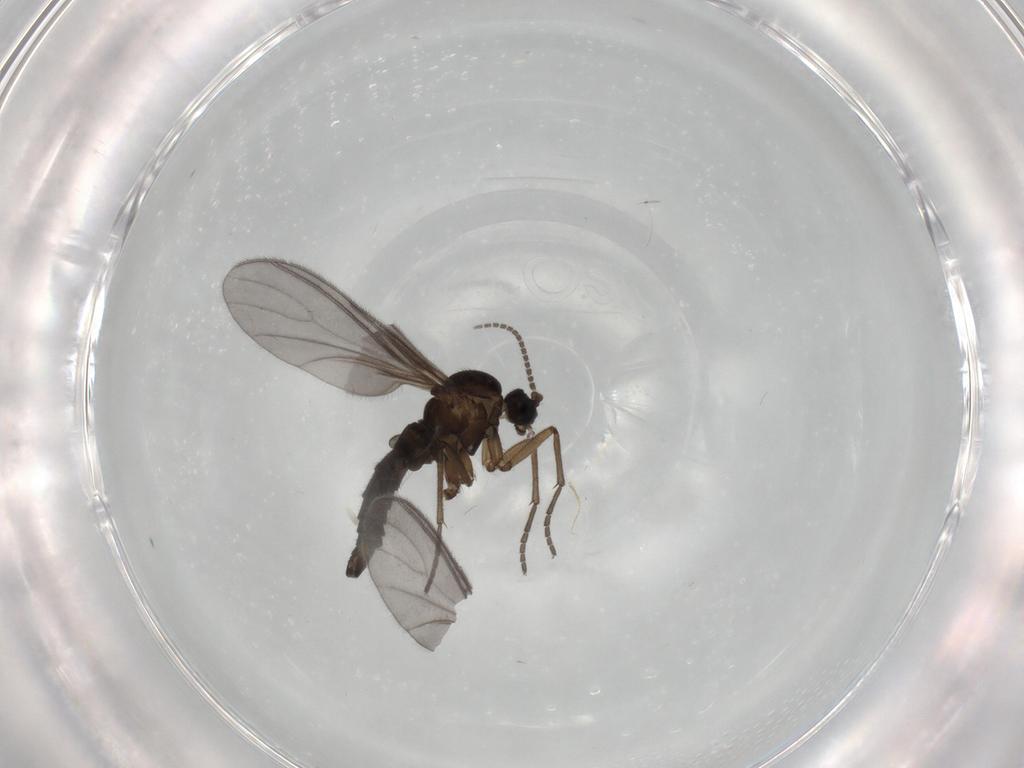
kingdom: Animalia
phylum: Arthropoda
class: Insecta
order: Diptera
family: Sciaridae
